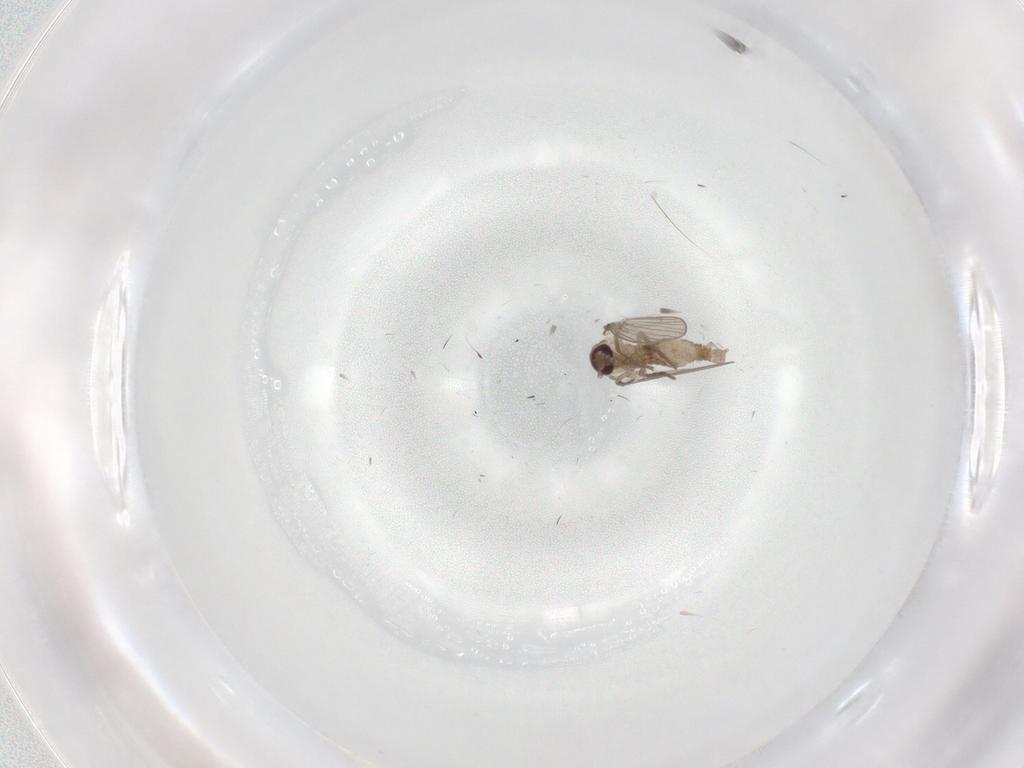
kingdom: Animalia
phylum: Arthropoda
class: Insecta
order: Diptera
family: Psychodidae
